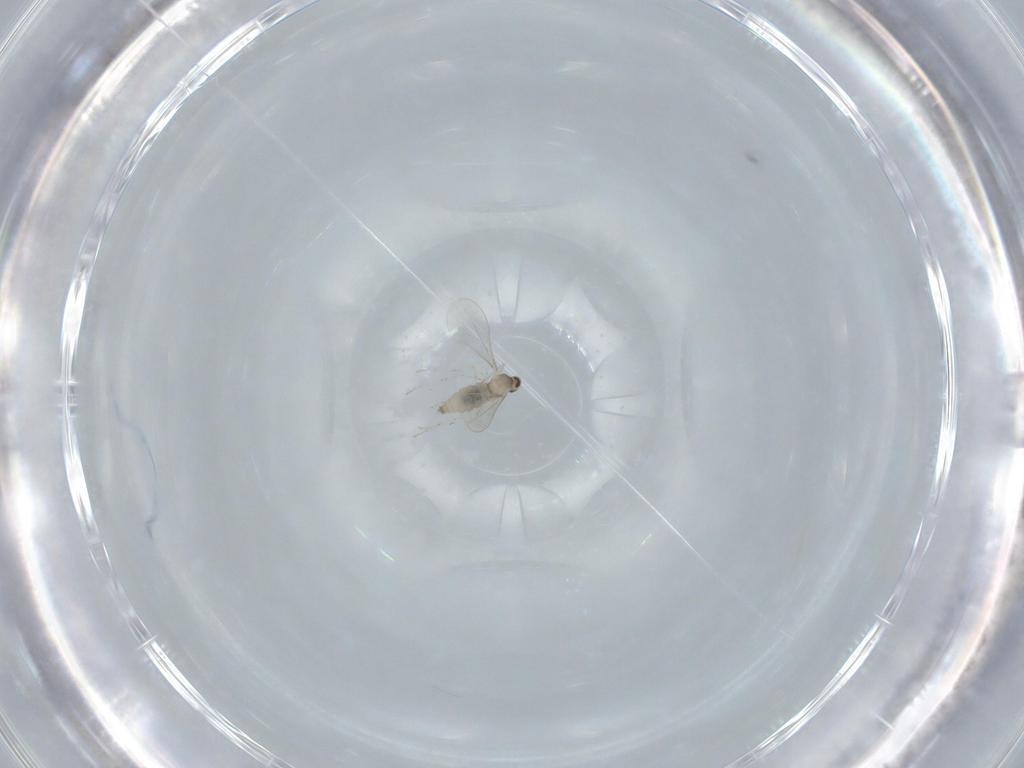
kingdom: Animalia
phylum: Arthropoda
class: Insecta
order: Diptera
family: Cecidomyiidae
